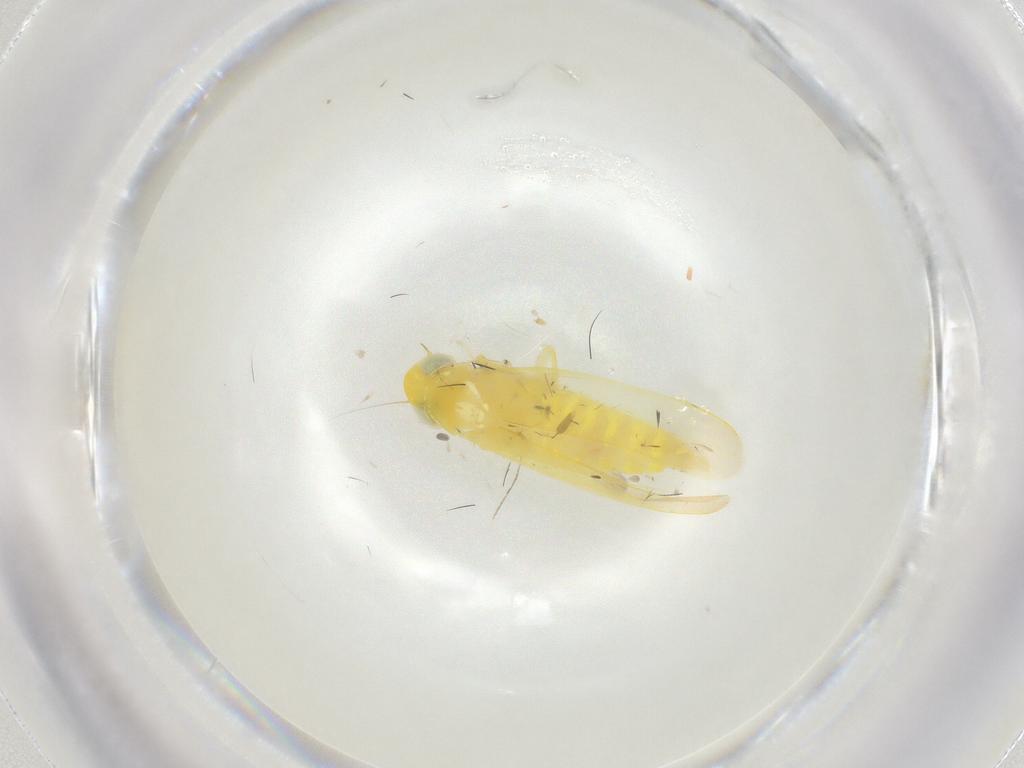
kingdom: Animalia
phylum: Arthropoda
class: Insecta
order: Hemiptera
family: Cicadellidae
